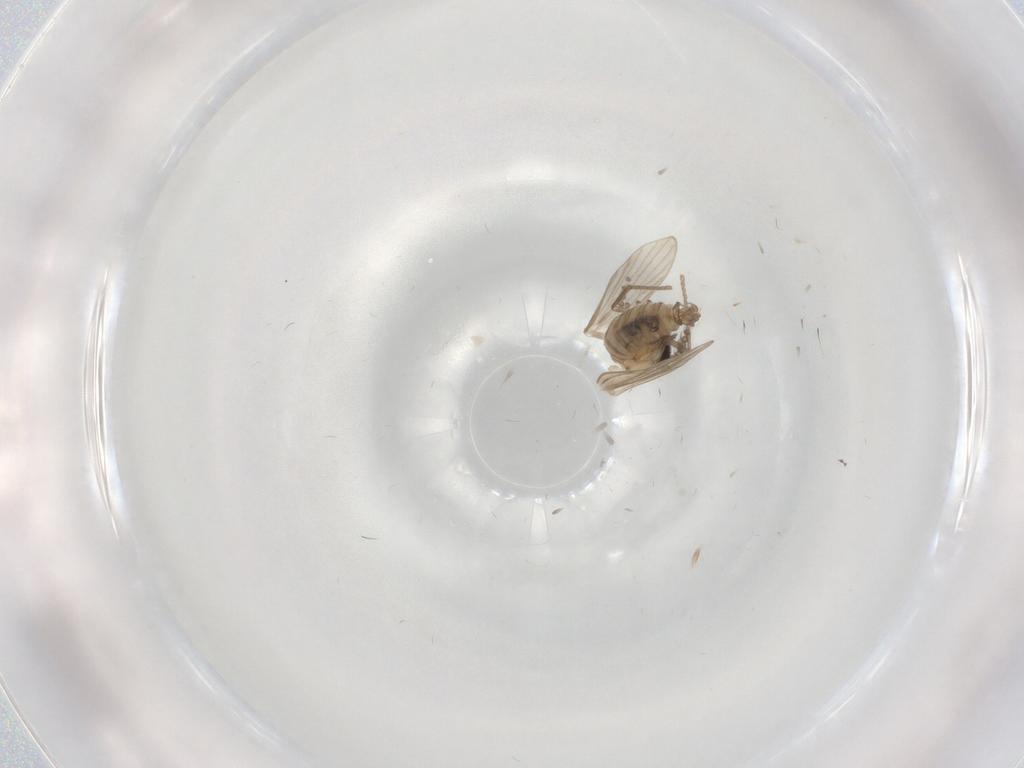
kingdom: Animalia
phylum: Arthropoda
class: Insecta
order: Diptera
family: Psychodidae
